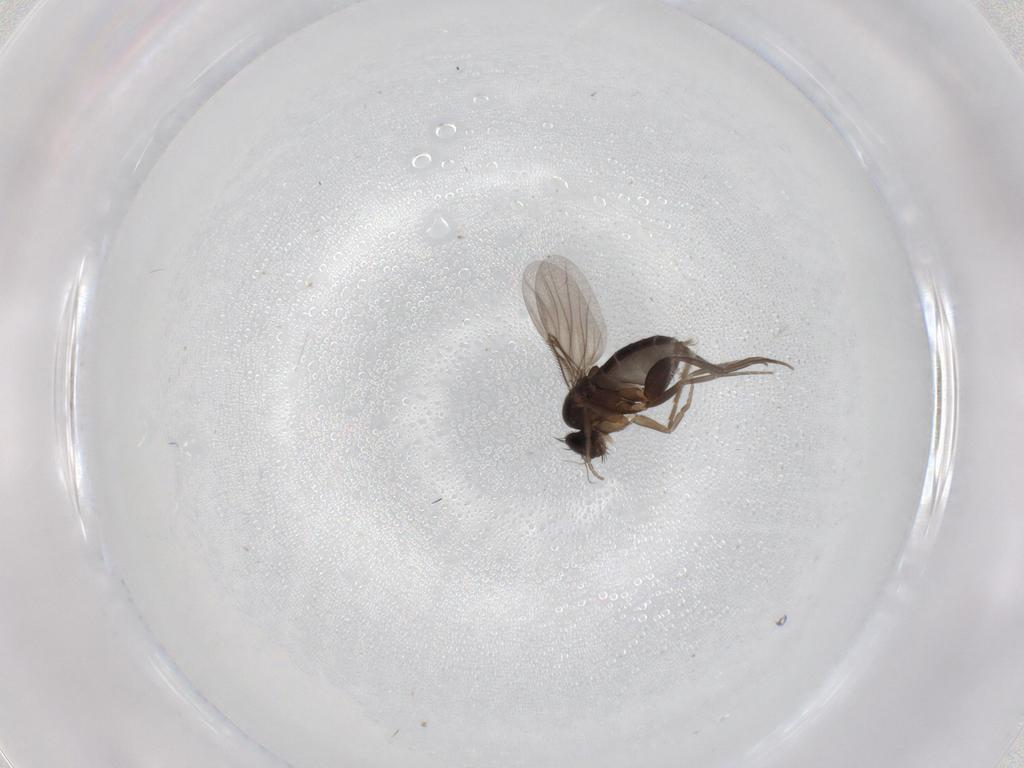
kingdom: Animalia
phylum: Arthropoda
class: Insecta
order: Diptera
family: Phoridae
